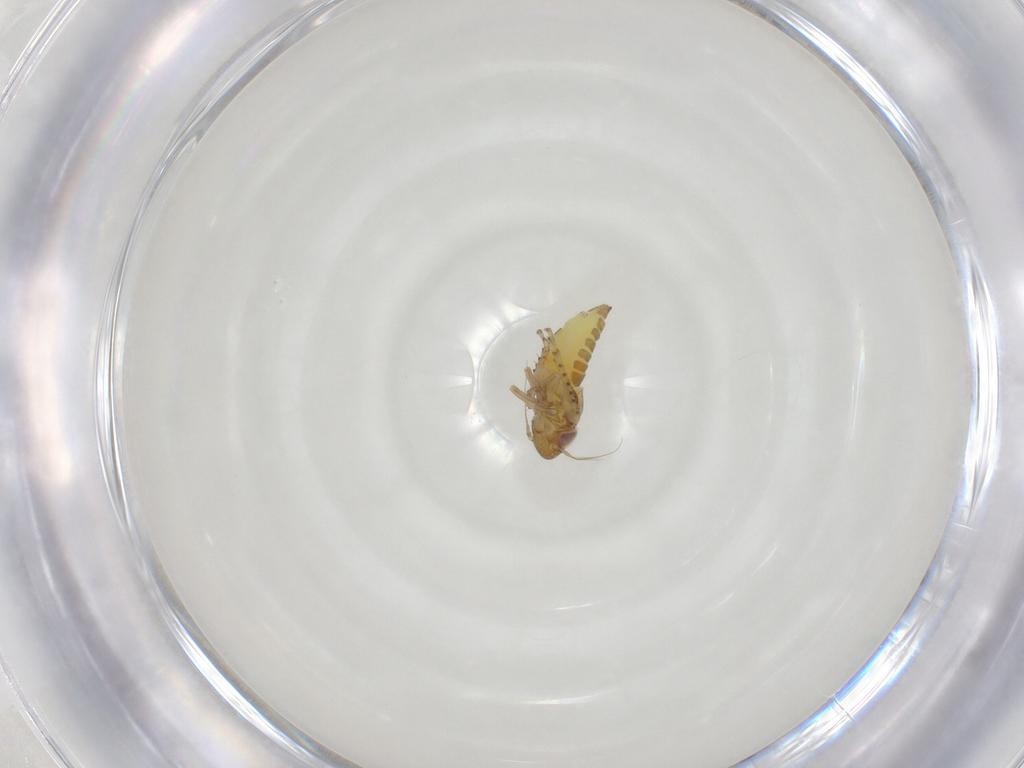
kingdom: Animalia
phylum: Arthropoda
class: Insecta
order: Hemiptera
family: Cicadellidae
